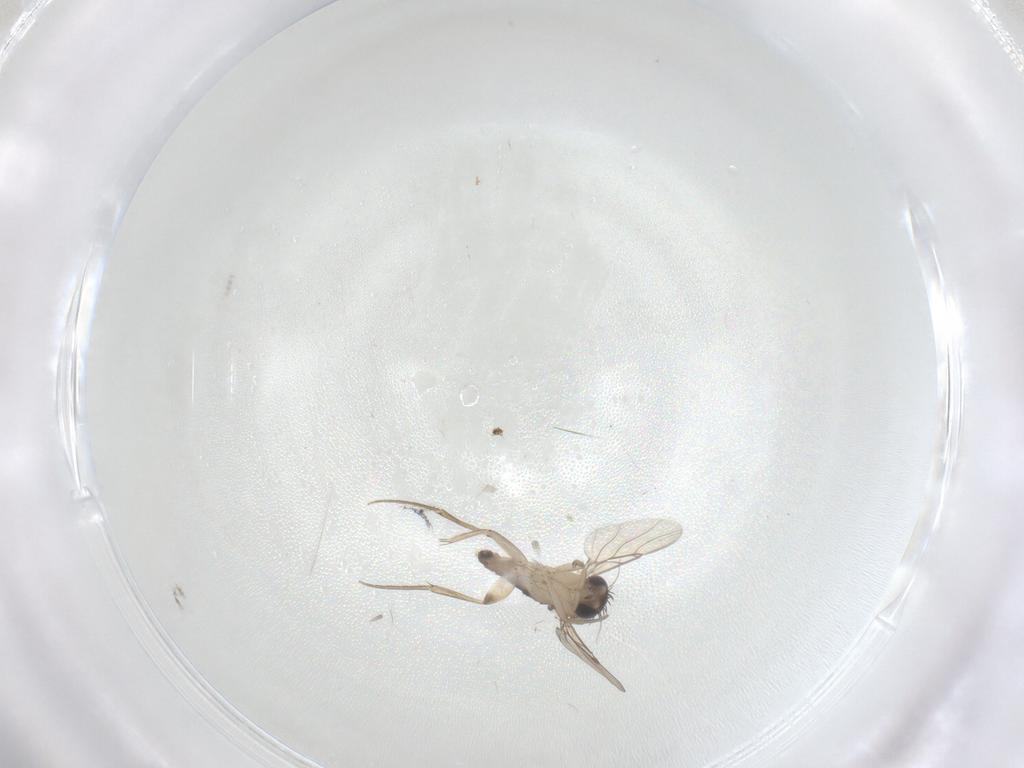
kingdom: Animalia
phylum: Arthropoda
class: Insecta
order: Diptera
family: Phoridae
